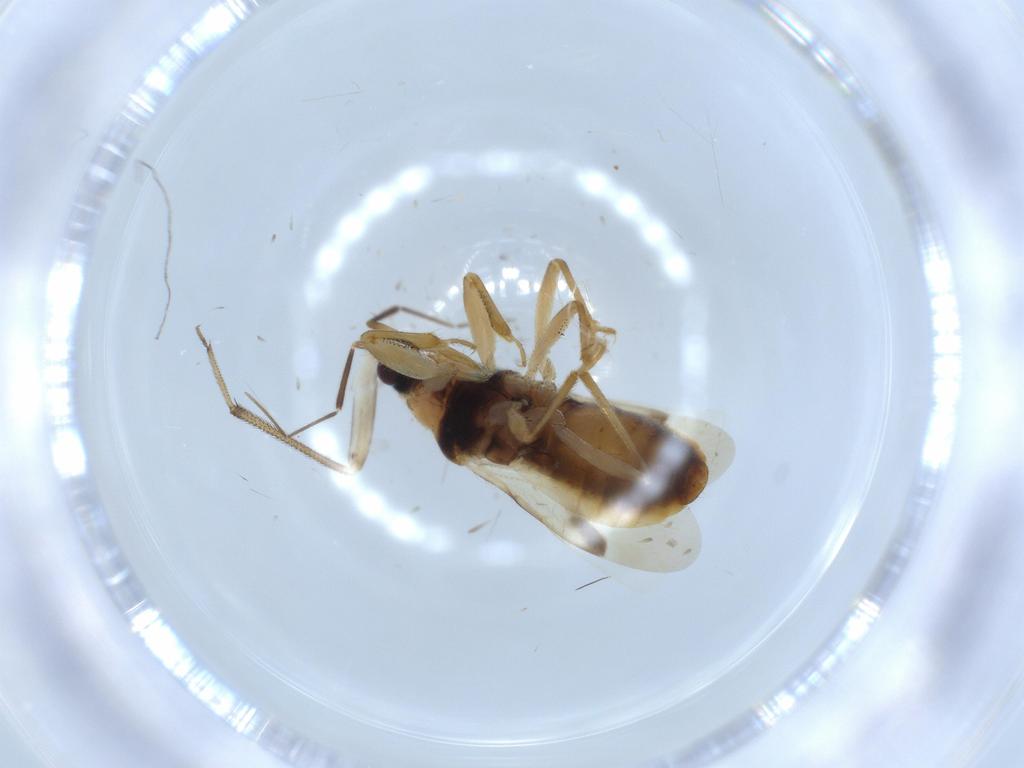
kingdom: Animalia
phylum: Arthropoda
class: Insecta
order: Hemiptera
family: Nabidae
